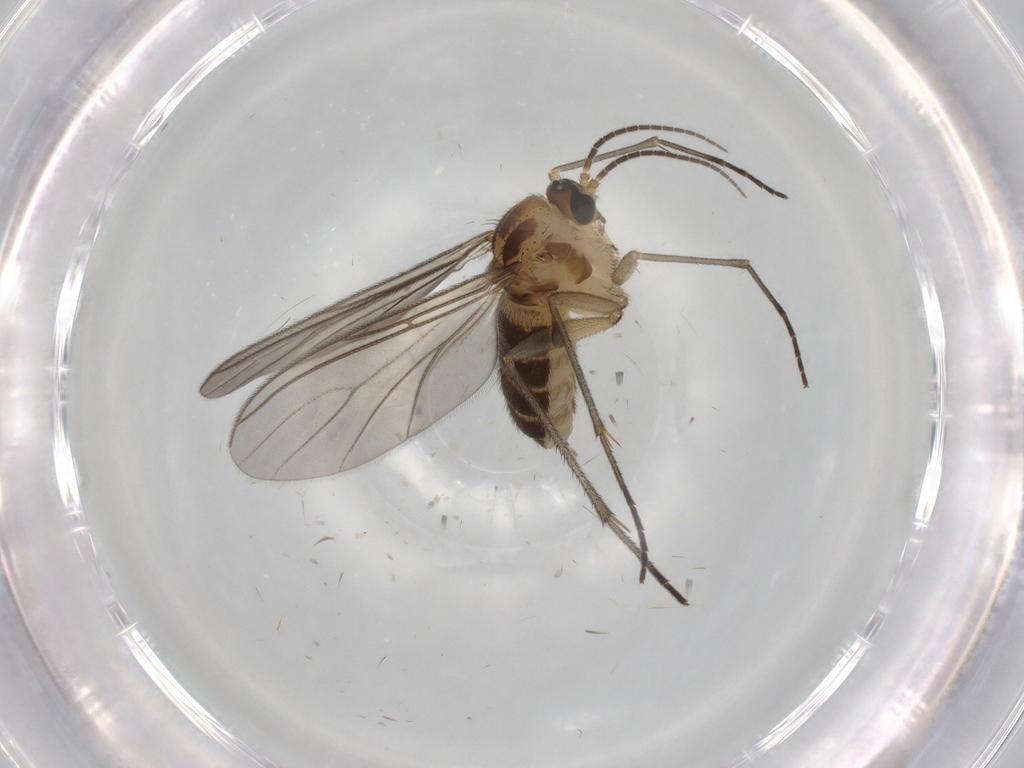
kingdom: Animalia
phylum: Arthropoda
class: Insecta
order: Diptera
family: Sciaridae
